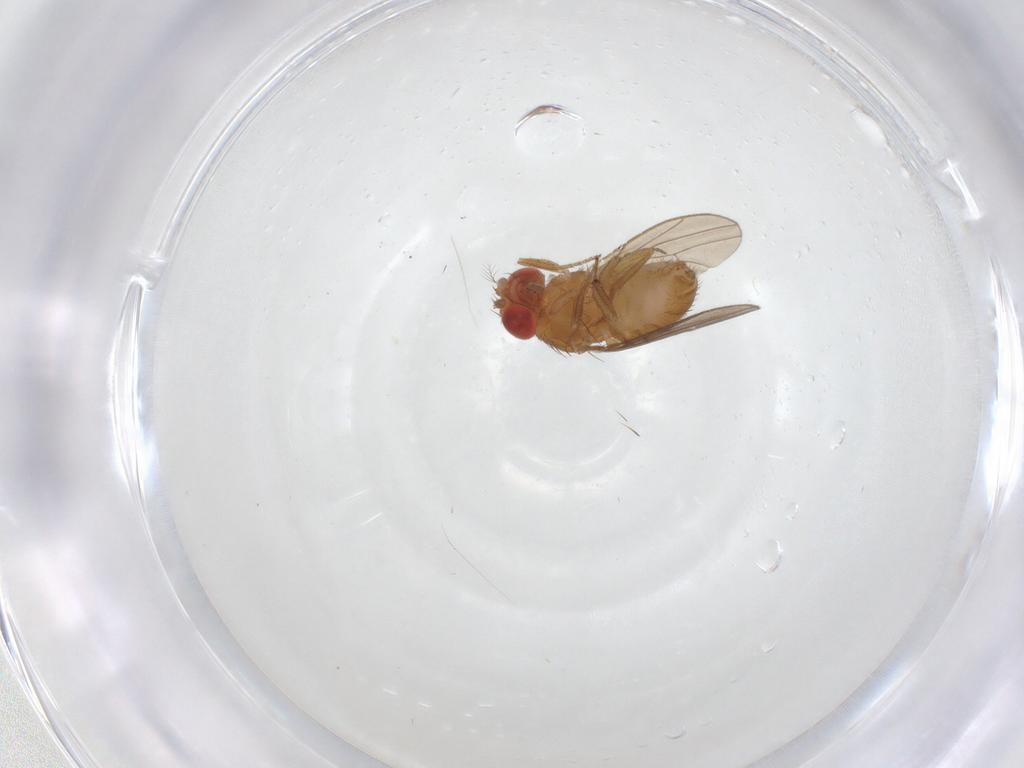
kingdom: Animalia
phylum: Arthropoda
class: Insecta
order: Diptera
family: Drosophilidae
